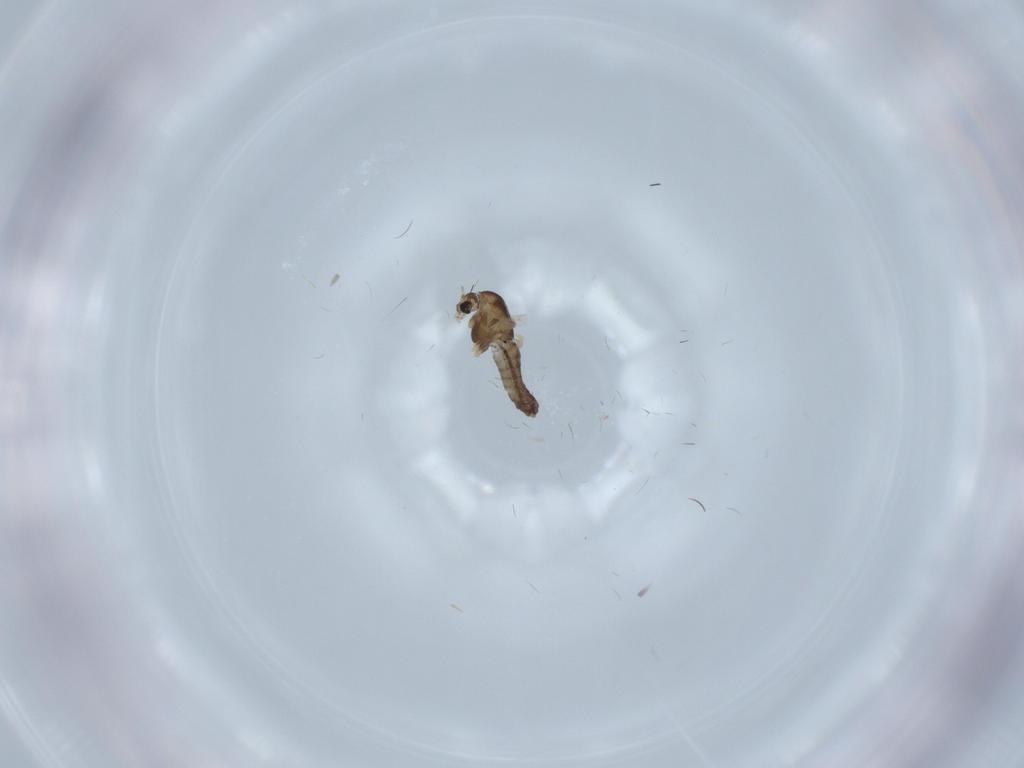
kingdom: Animalia
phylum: Arthropoda
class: Insecta
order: Diptera
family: Chironomidae
